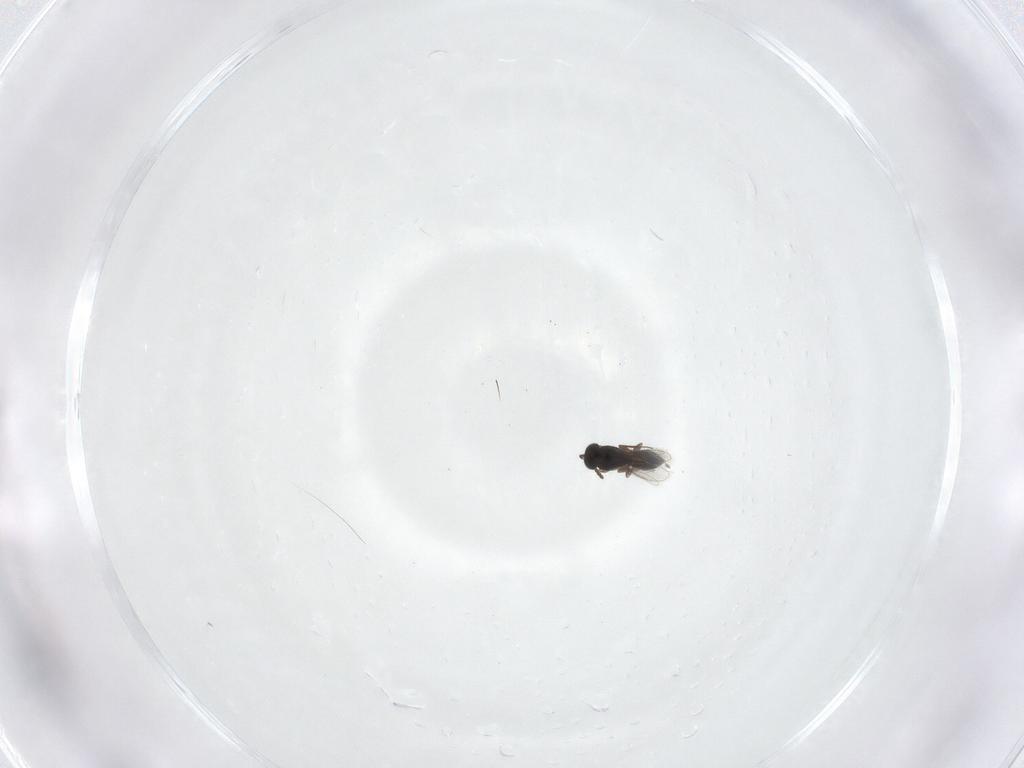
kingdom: Animalia
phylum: Arthropoda
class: Insecta
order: Hymenoptera
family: Scelionidae
